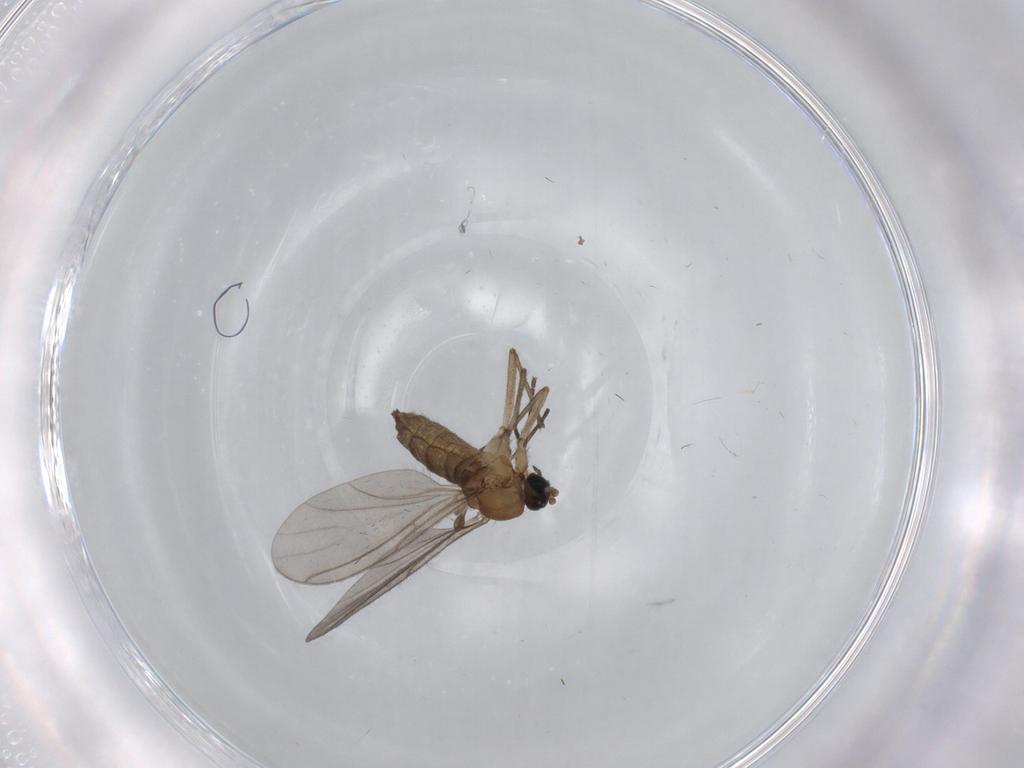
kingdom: Animalia
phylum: Arthropoda
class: Insecta
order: Diptera
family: Sciaridae
